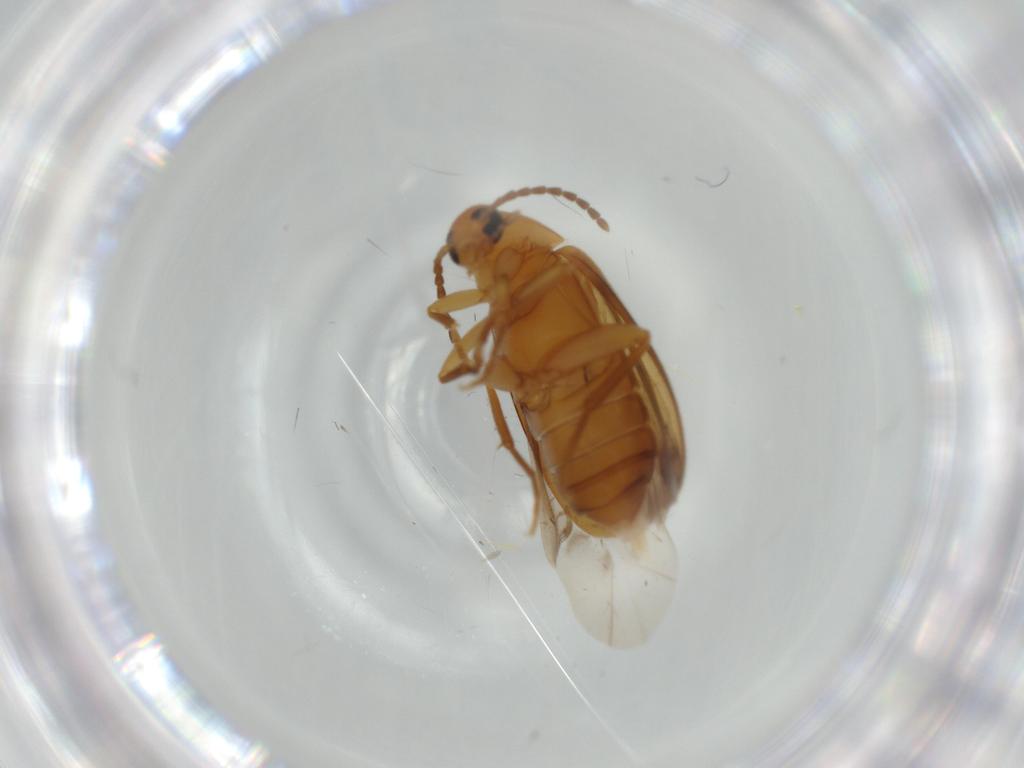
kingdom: Animalia
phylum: Arthropoda
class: Insecta
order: Coleoptera
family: Scraptiidae
